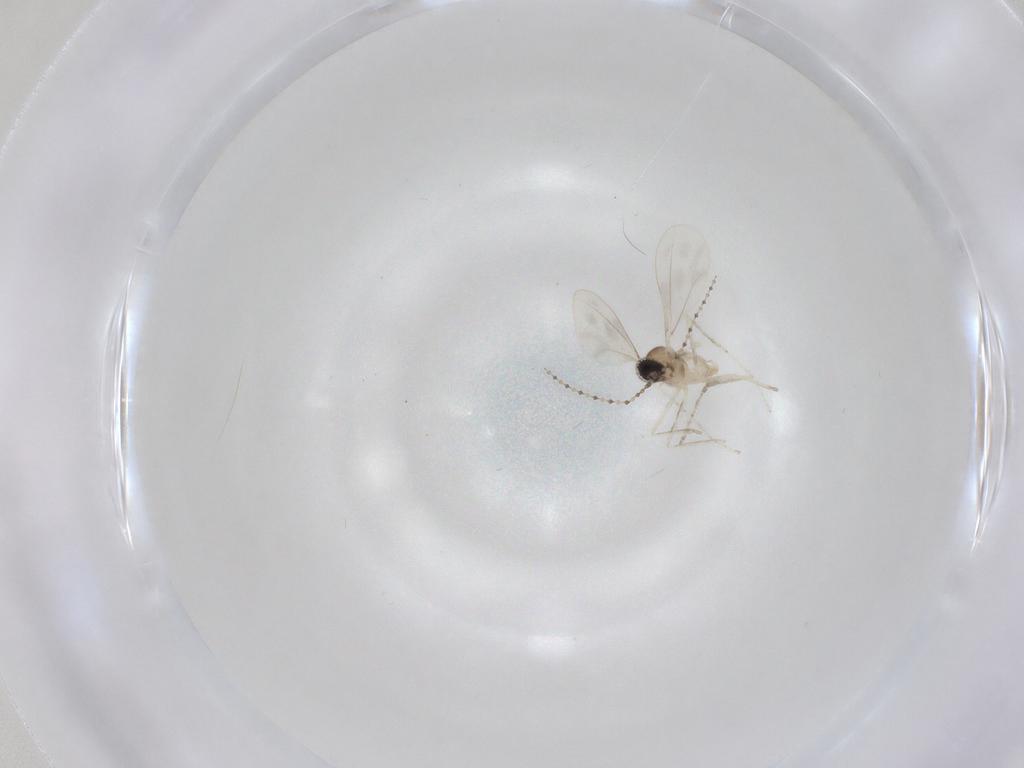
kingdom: Animalia
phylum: Arthropoda
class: Insecta
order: Diptera
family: Cecidomyiidae
